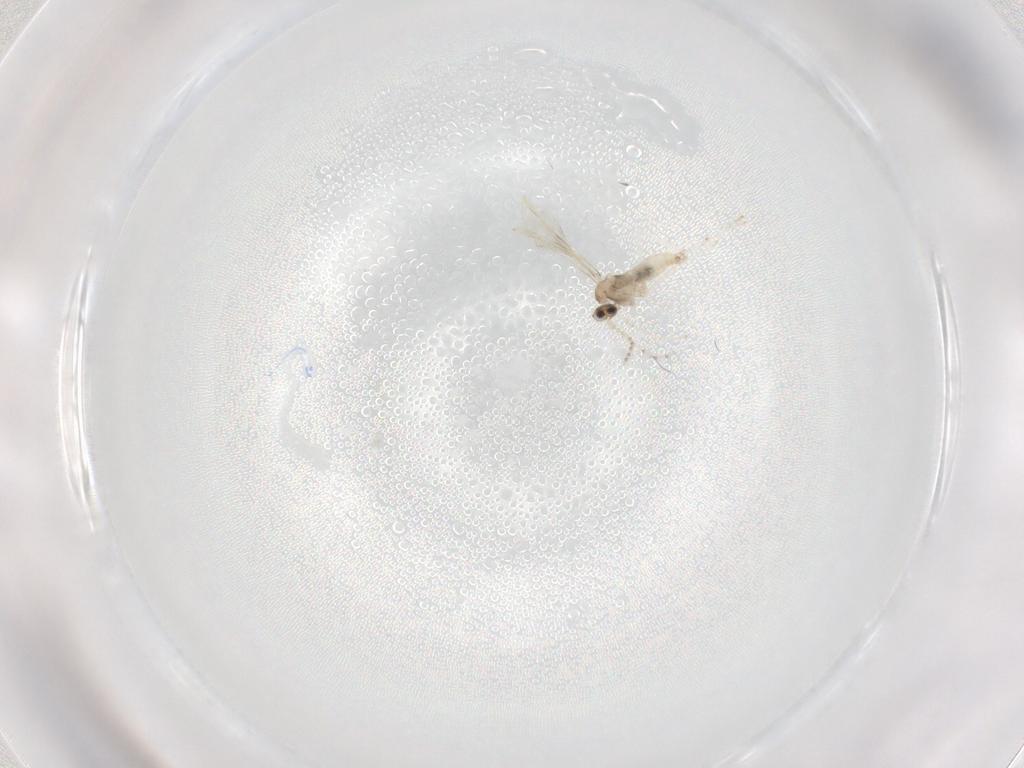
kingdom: Animalia
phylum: Arthropoda
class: Insecta
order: Diptera
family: Cecidomyiidae
